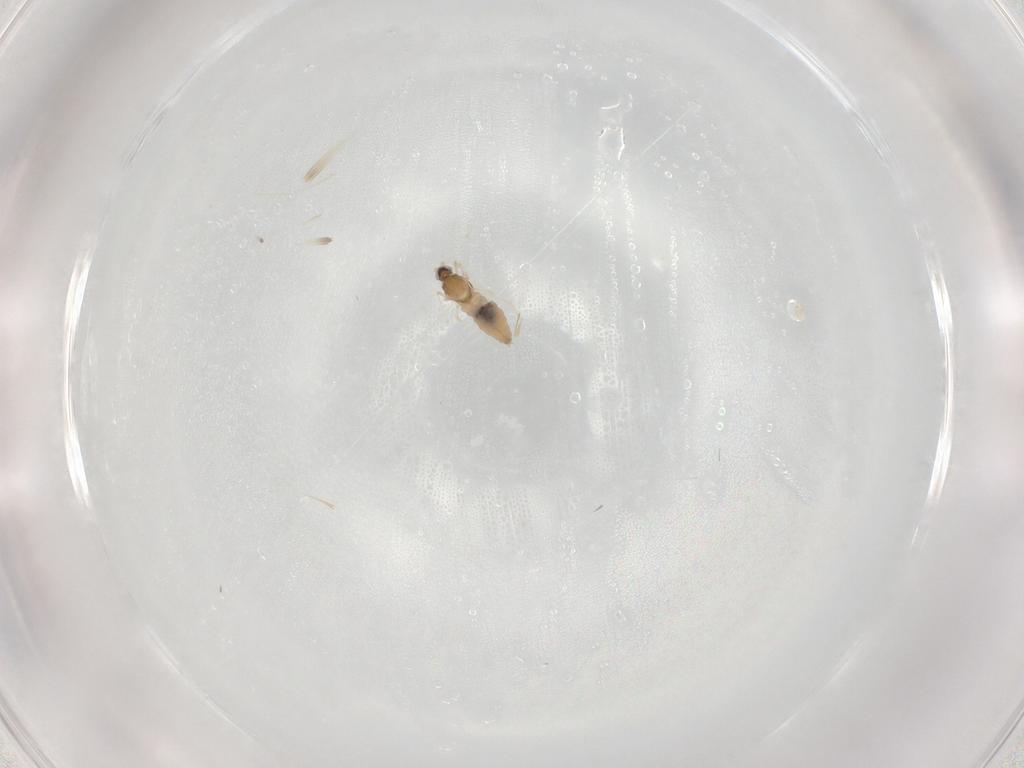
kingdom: Animalia
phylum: Arthropoda
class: Insecta
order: Diptera
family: Cecidomyiidae
